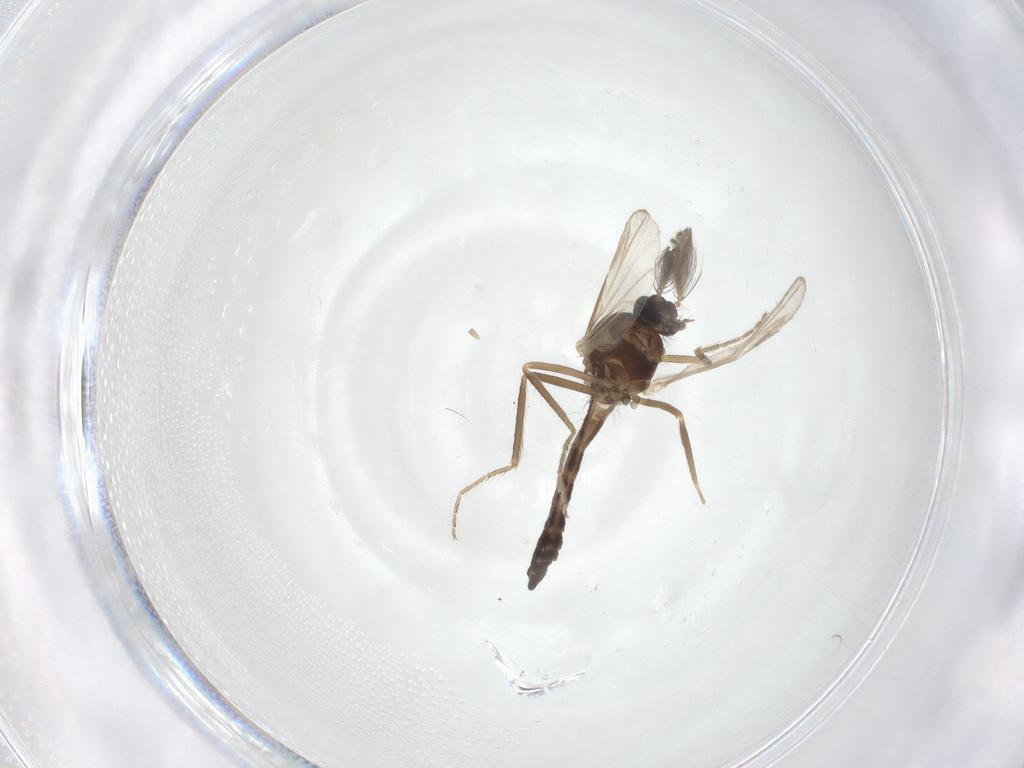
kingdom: Animalia
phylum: Arthropoda
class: Insecta
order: Diptera
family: Ceratopogonidae
